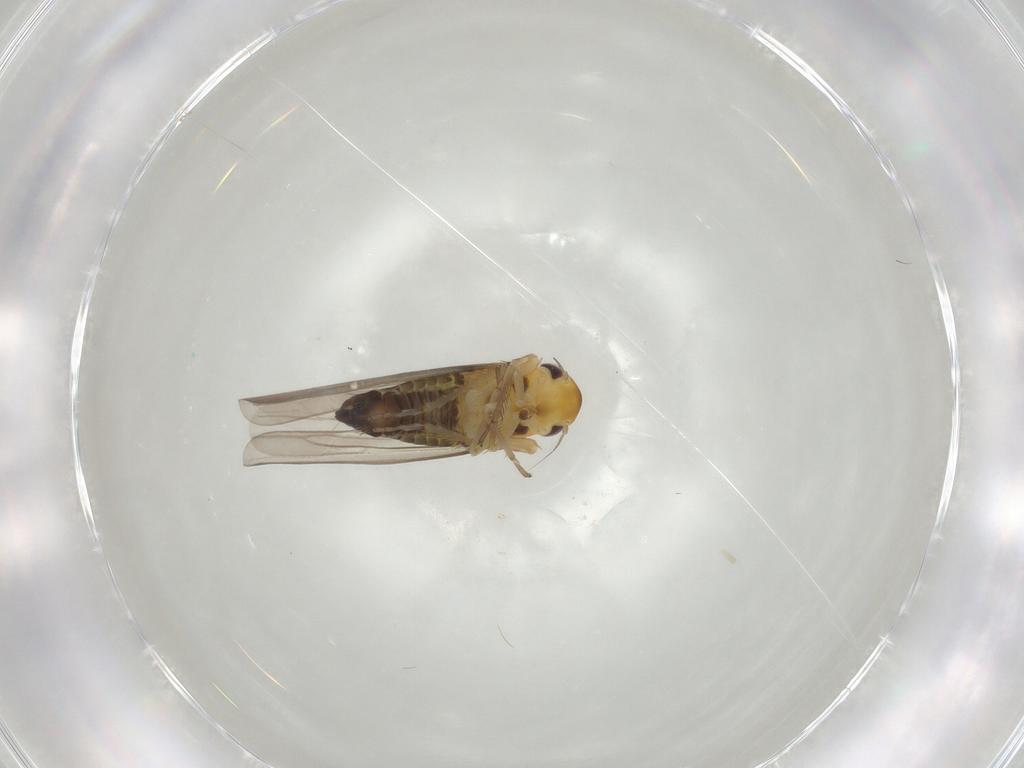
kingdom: Animalia
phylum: Arthropoda
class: Insecta
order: Hemiptera
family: Cicadellidae
